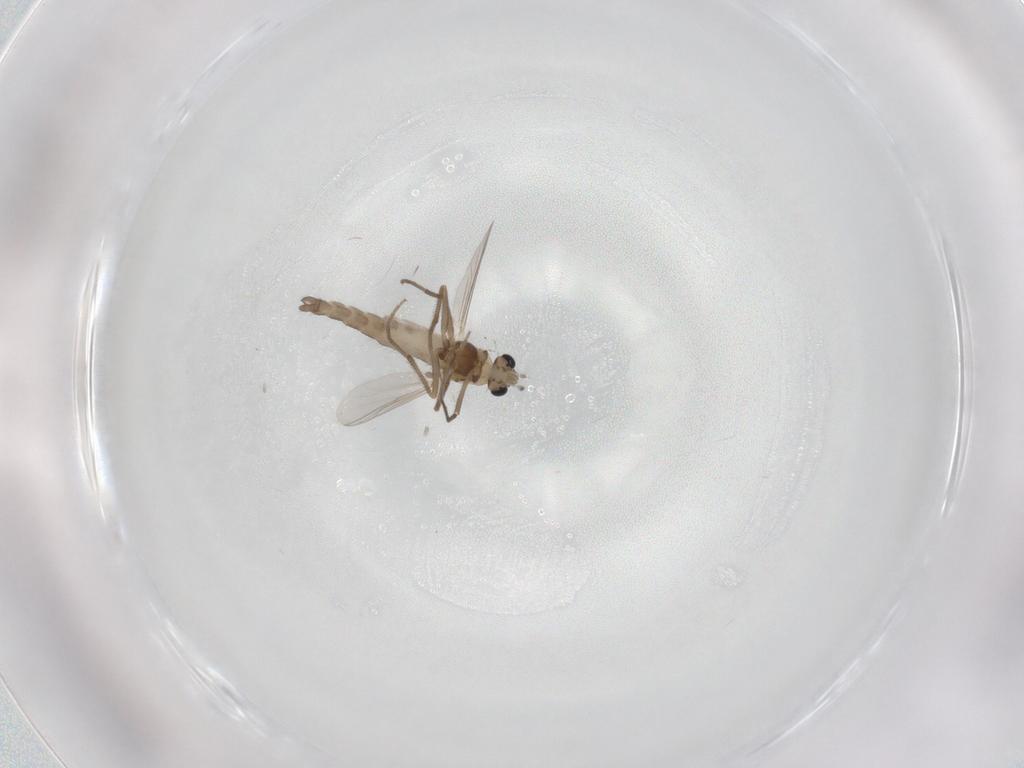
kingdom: Animalia
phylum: Arthropoda
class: Insecta
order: Diptera
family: Chironomidae
